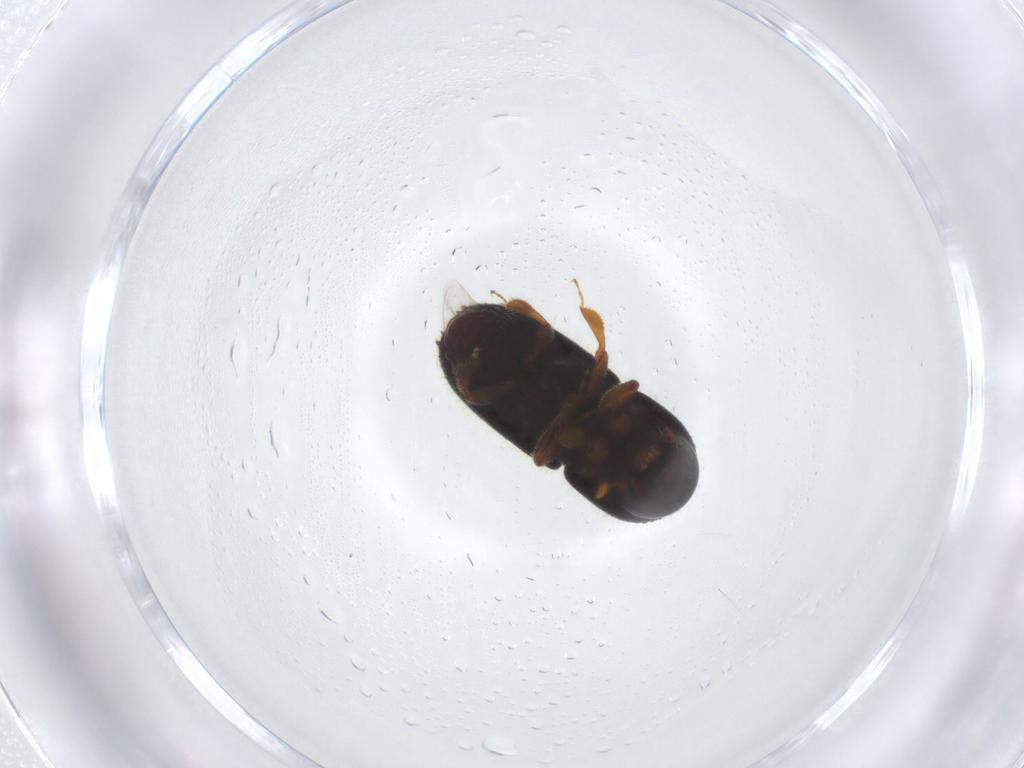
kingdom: Animalia
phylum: Arthropoda
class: Insecta
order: Coleoptera
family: Curculionidae
